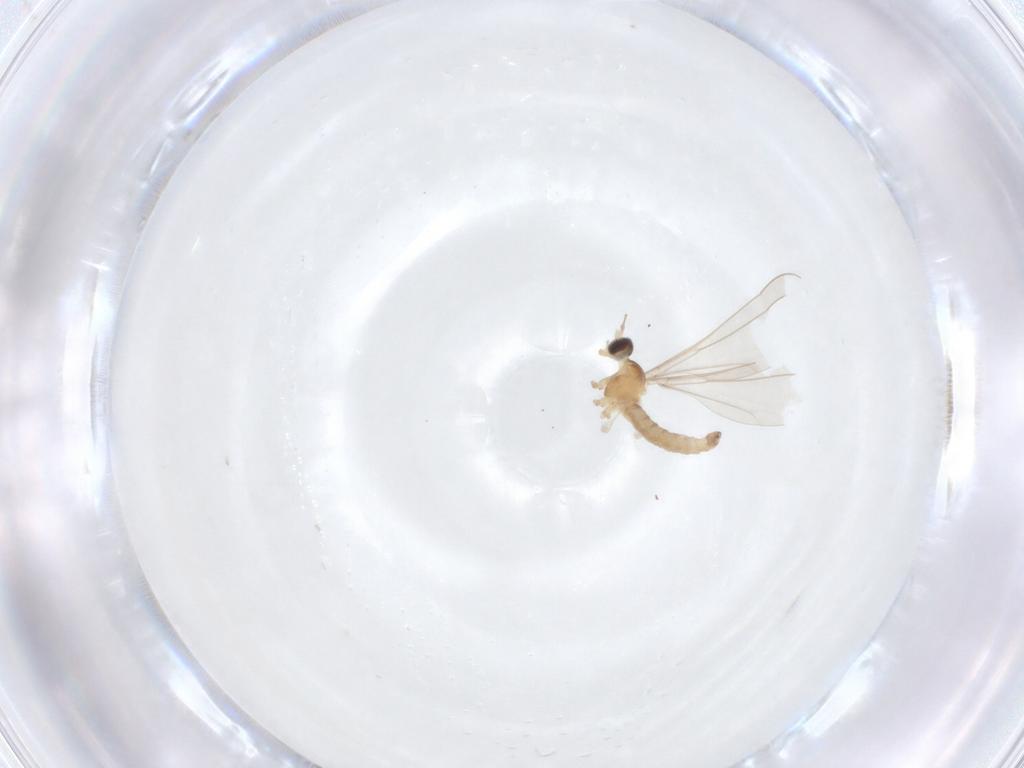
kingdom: Animalia
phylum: Arthropoda
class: Insecta
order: Diptera
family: Cecidomyiidae
